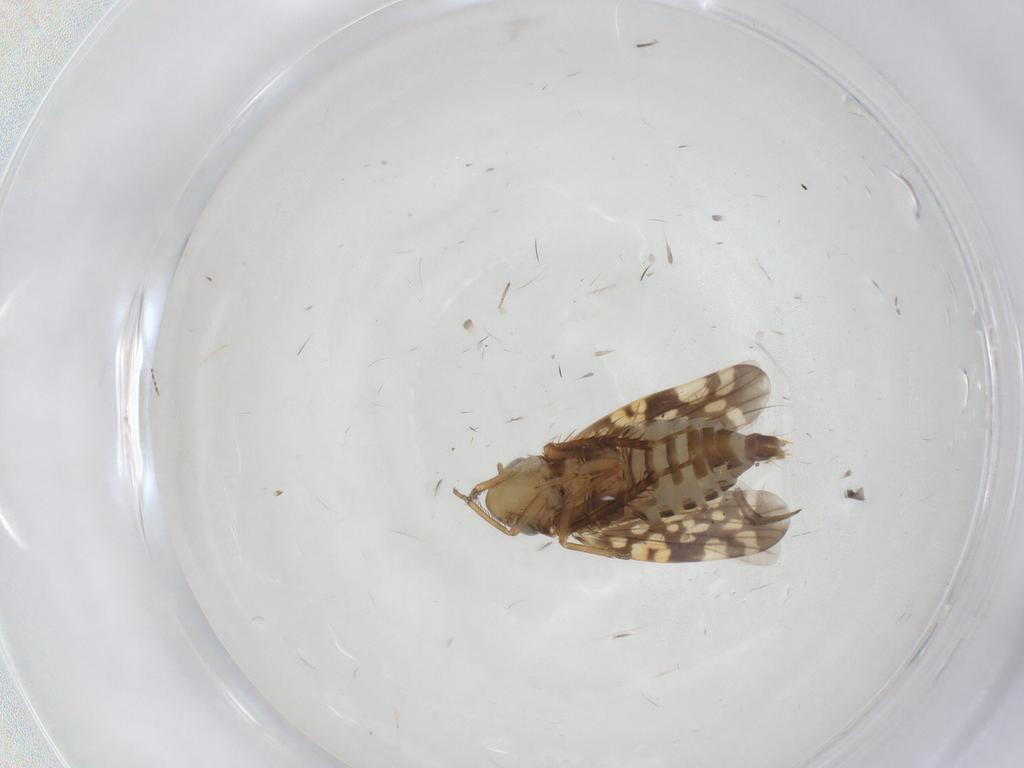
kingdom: Animalia
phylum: Arthropoda
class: Insecta
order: Hemiptera
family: Cicadellidae
